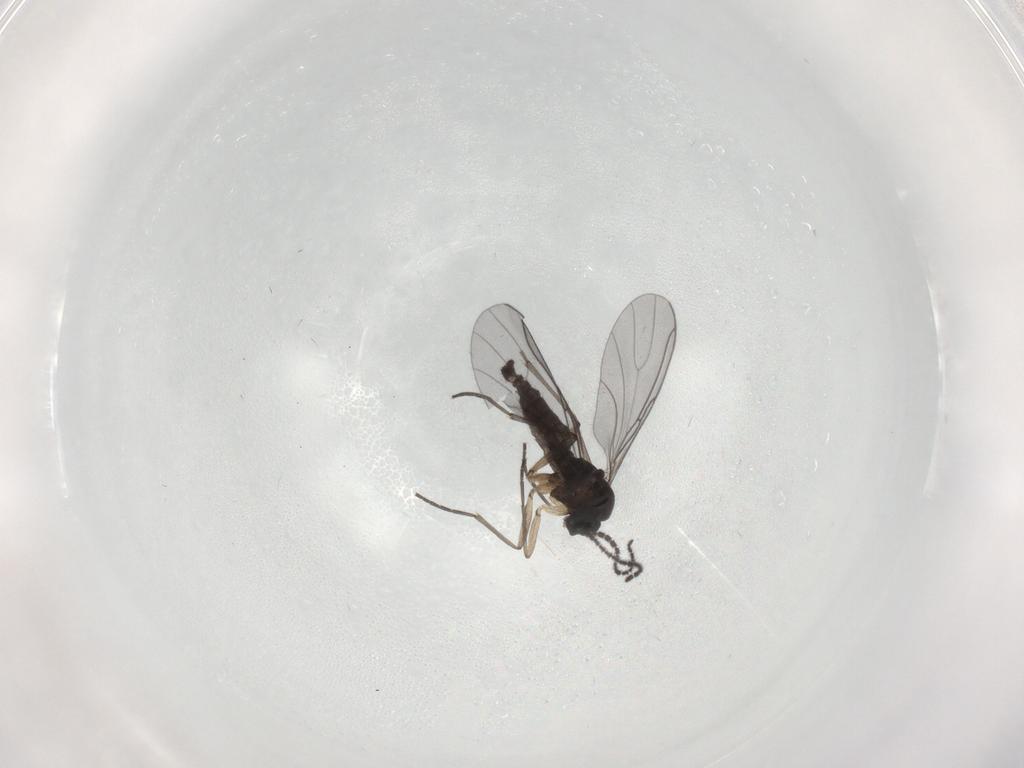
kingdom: Animalia
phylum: Arthropoda
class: Insecta
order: Diptera
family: Sciaridae
